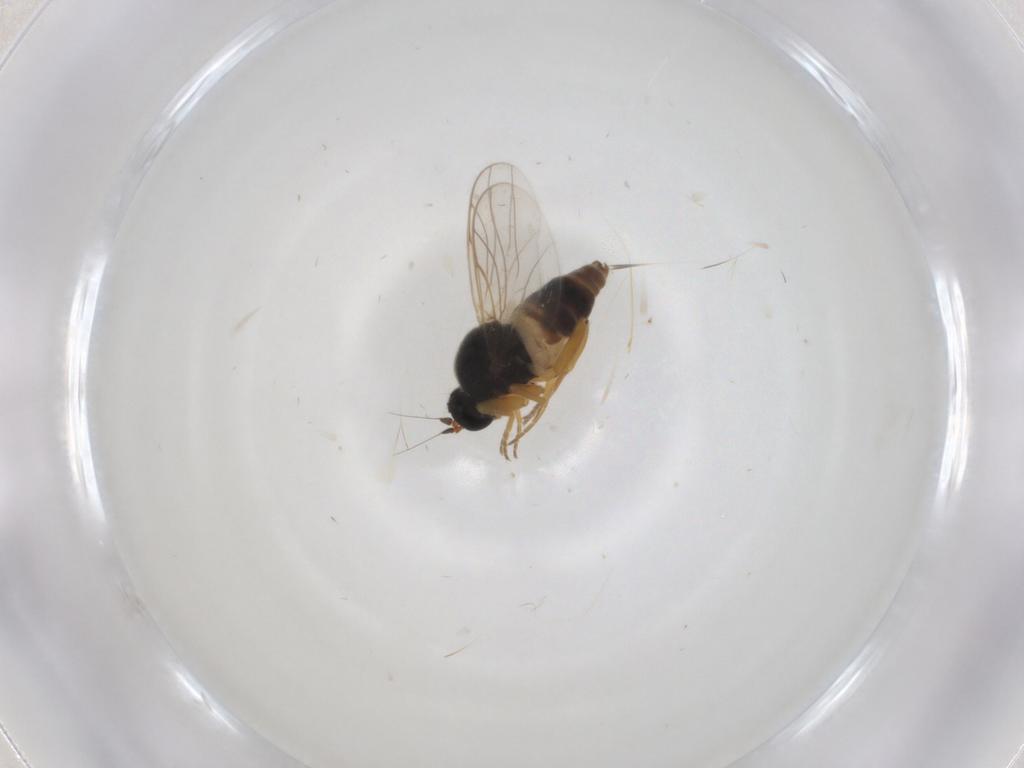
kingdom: Animalia
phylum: Arthropoda
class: Insecta
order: Diptera
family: Hybotidae
